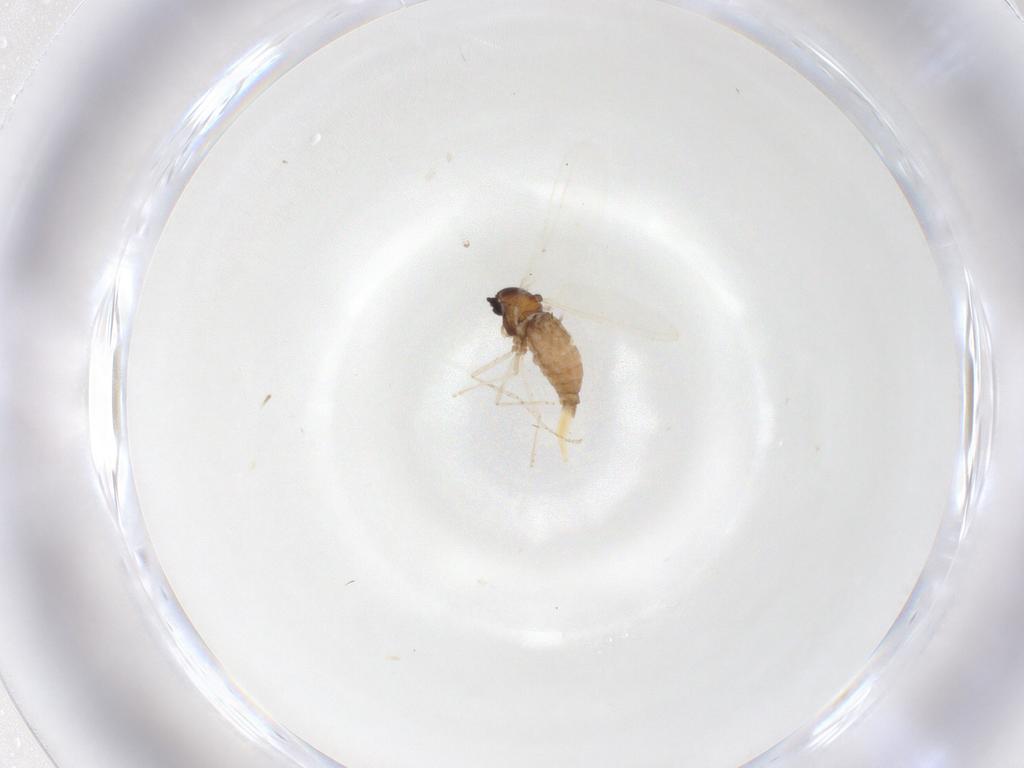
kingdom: Animalia
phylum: Arthropoda
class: Insecta
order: Diptera
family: Cecidomyiidae
